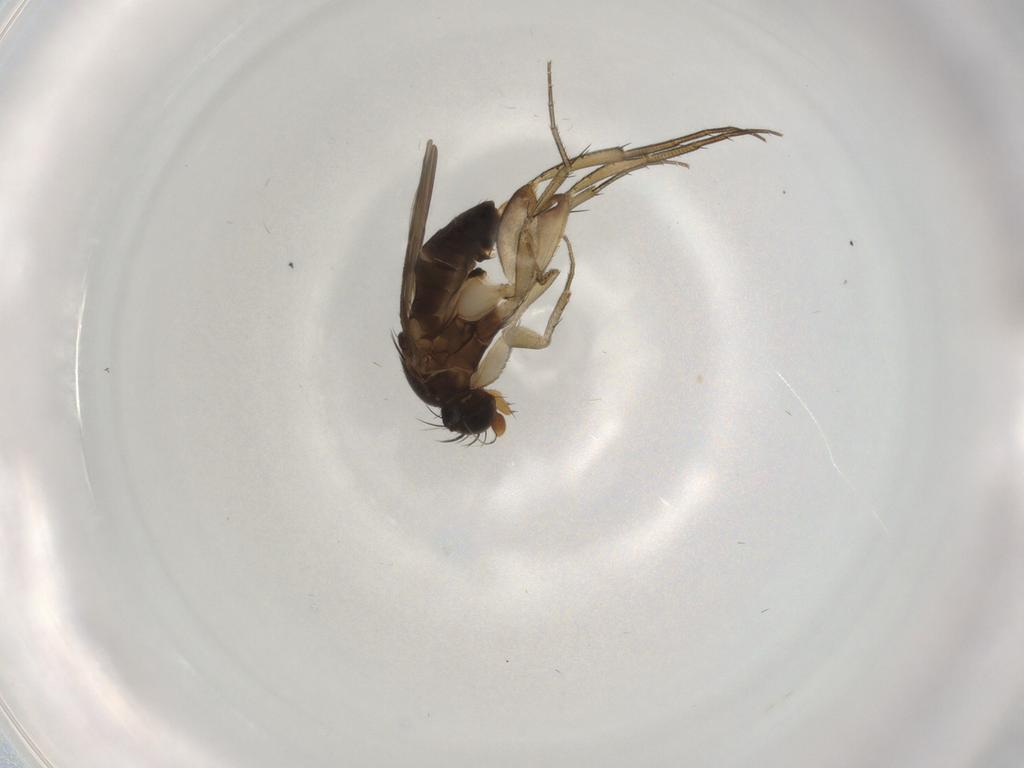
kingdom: Animalia
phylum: Arthropoda
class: Insecta
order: Diptera
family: Phoridae
